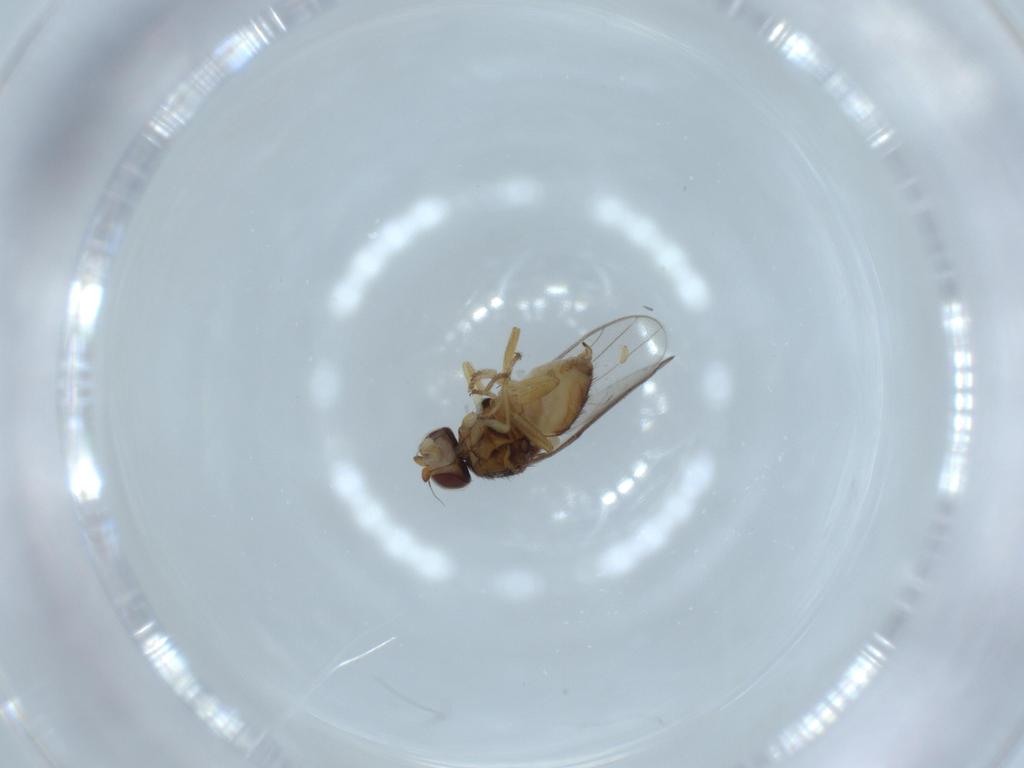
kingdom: Animalia
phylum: Arthropoda
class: Insecta
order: Diptera
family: Chloropidae
